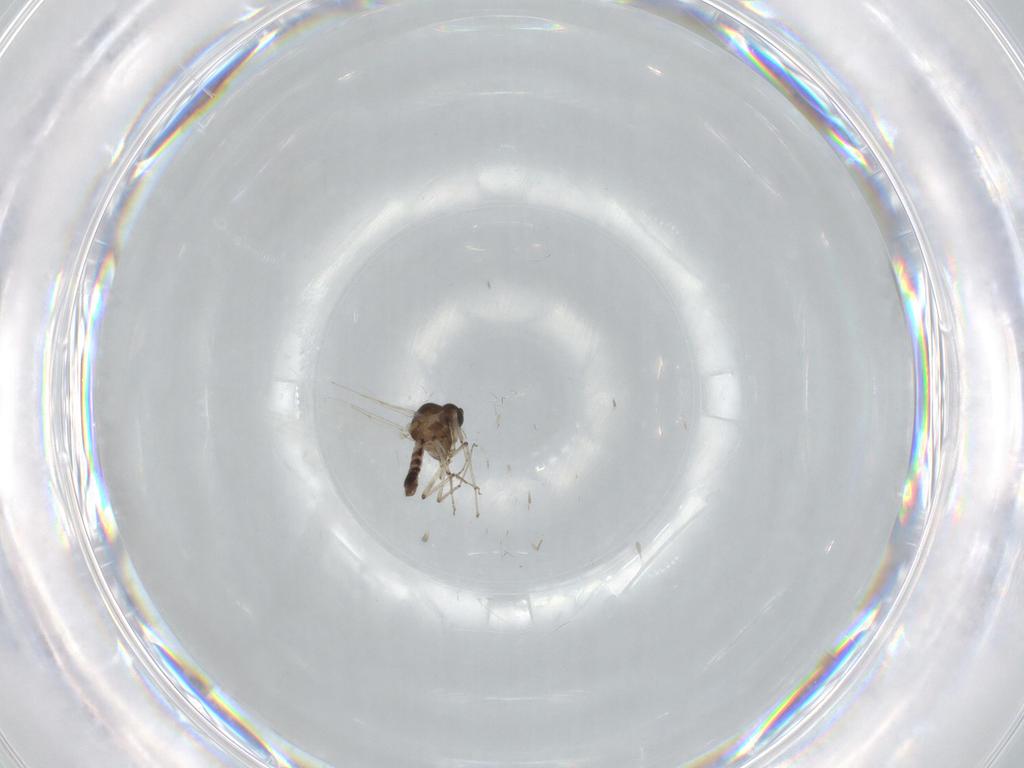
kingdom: Animalia
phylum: Arthropoda
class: Insecta
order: Diptera
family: Ceratopogonidae
